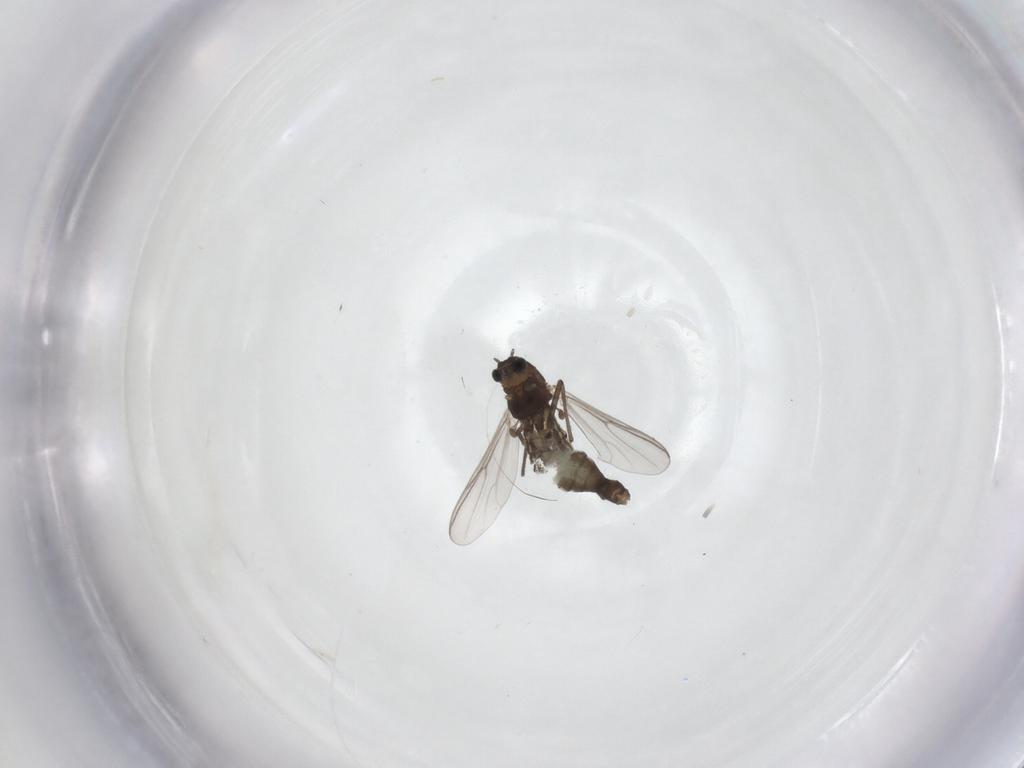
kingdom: Animalia
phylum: Arthropoda
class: Insecta
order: Diptera
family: Chironomidae
